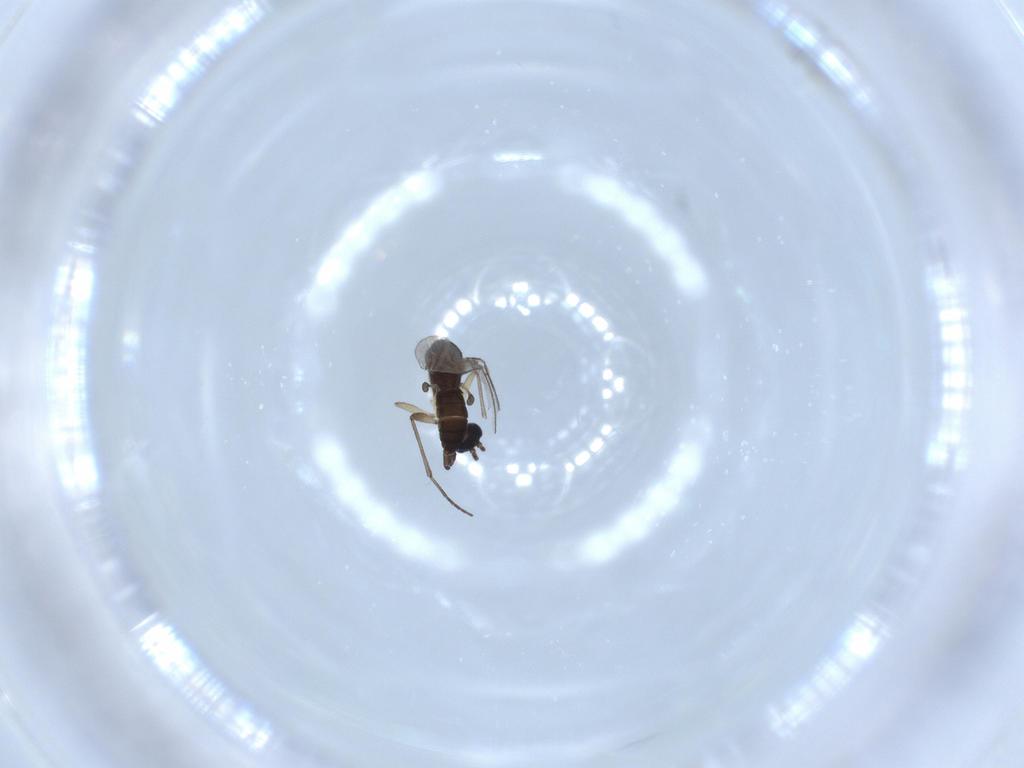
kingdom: Animalia
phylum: Arthropoda
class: Insecta
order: Diptera
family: Sciaridae
